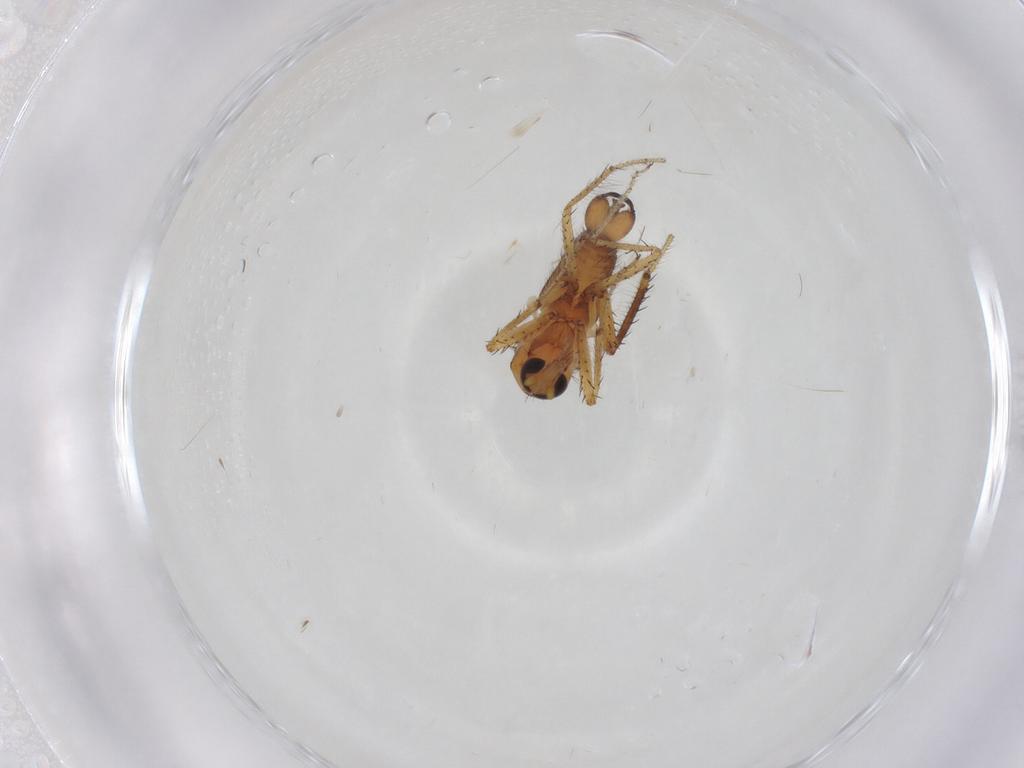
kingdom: Animalia
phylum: Arthropoda
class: Insecta
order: Diptera
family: Ceratopogonidae
